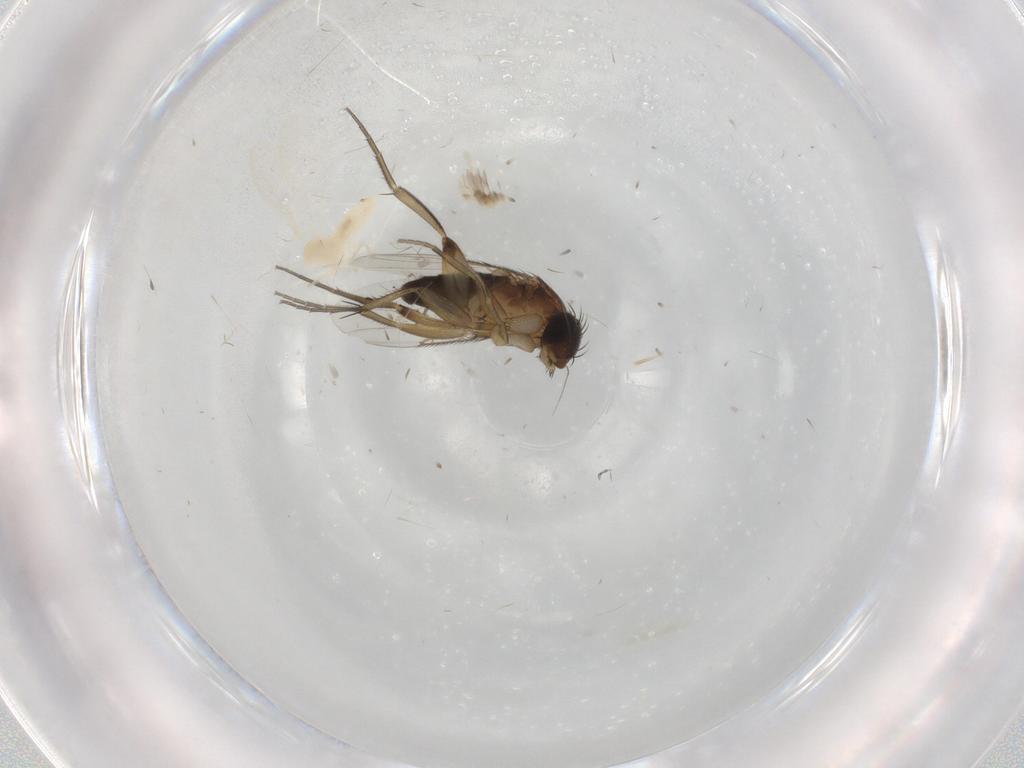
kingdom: Animalia
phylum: Arthropoda
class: Insecta
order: Diptera
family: Cecidomyiidae
